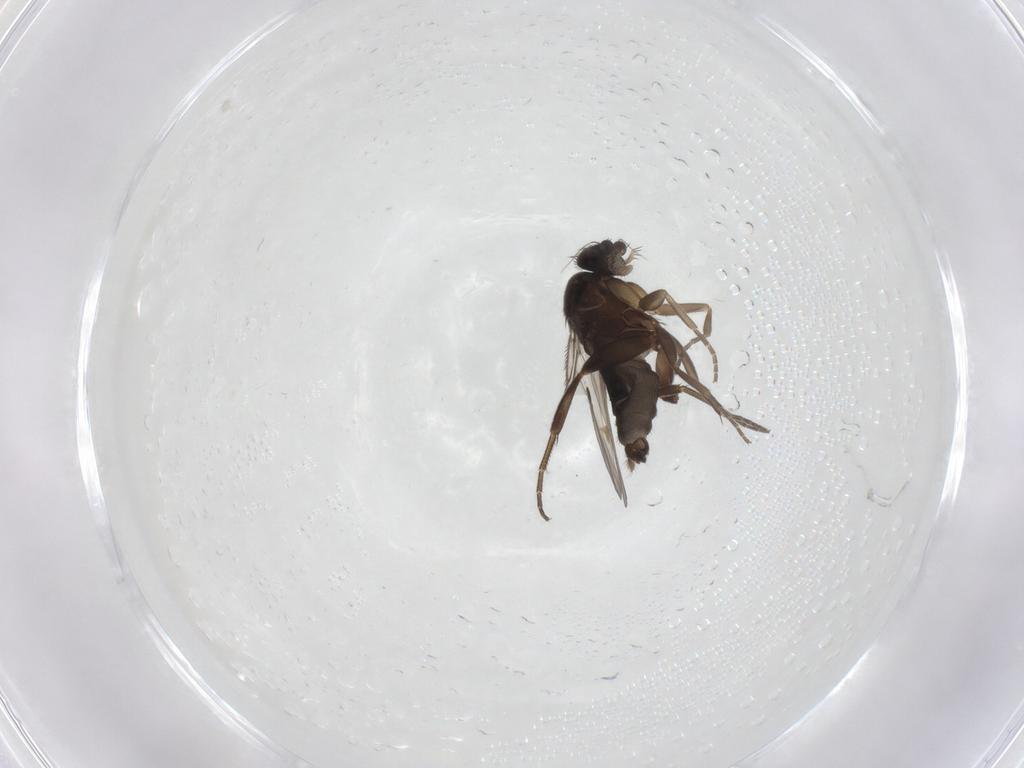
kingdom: Animalia
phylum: Arthropoda
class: Insecta
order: Diptera
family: Phoridae
